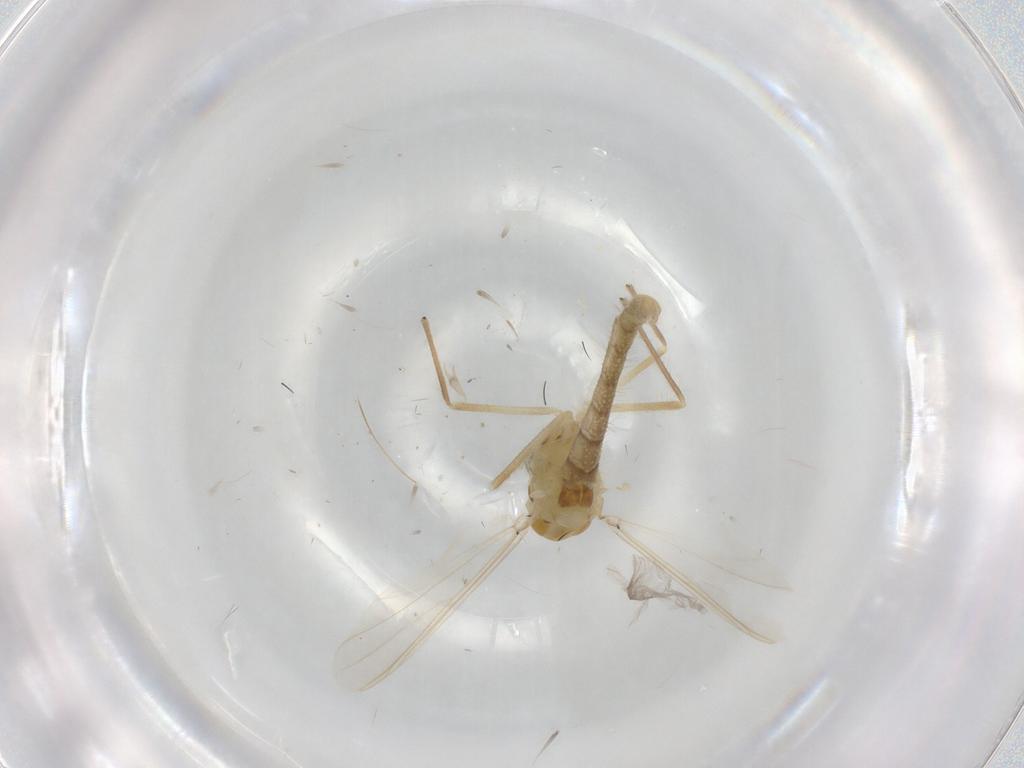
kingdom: Animalia
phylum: Arthropoda
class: Insecta
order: Diptera
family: Chironomidae
